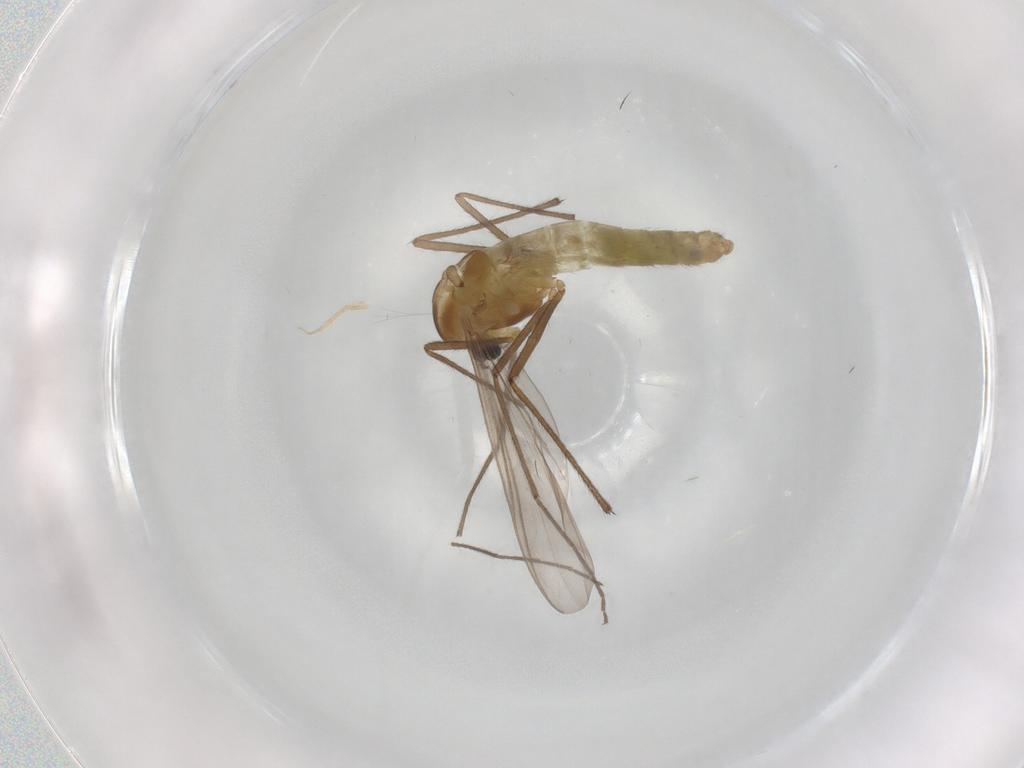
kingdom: Animalia
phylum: Arthropoda
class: Insecta
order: Diptera
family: Chironomidae
